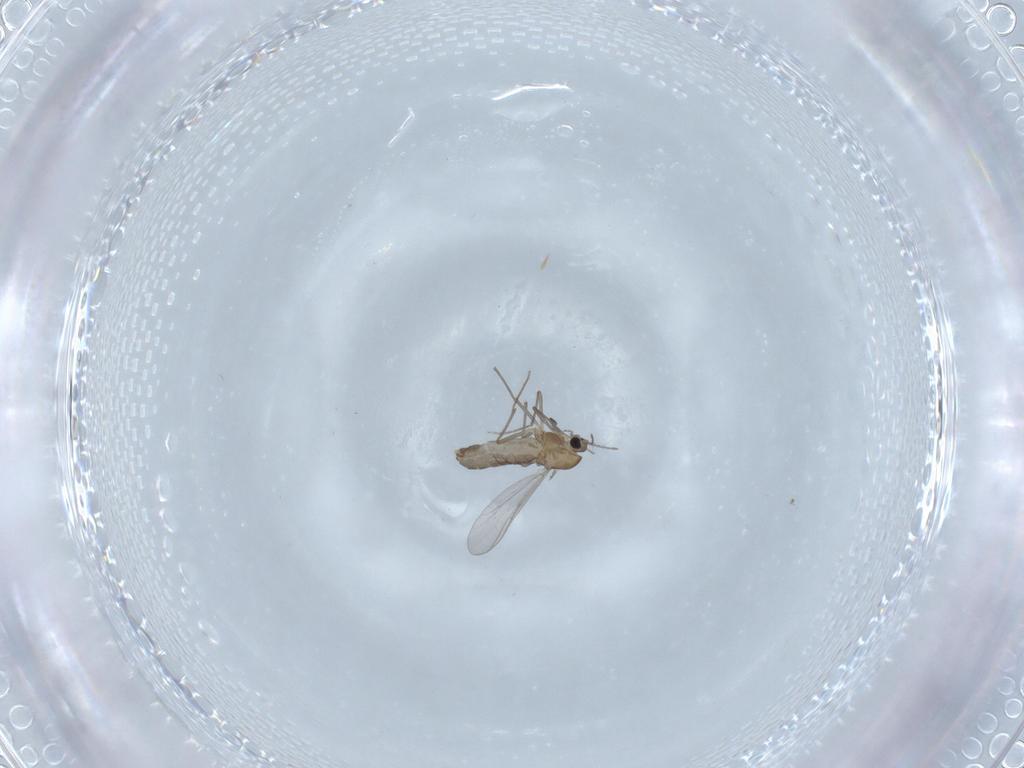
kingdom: Animalia
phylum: Arthropoda
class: Insecta
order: Diptera
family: Chironomidae
